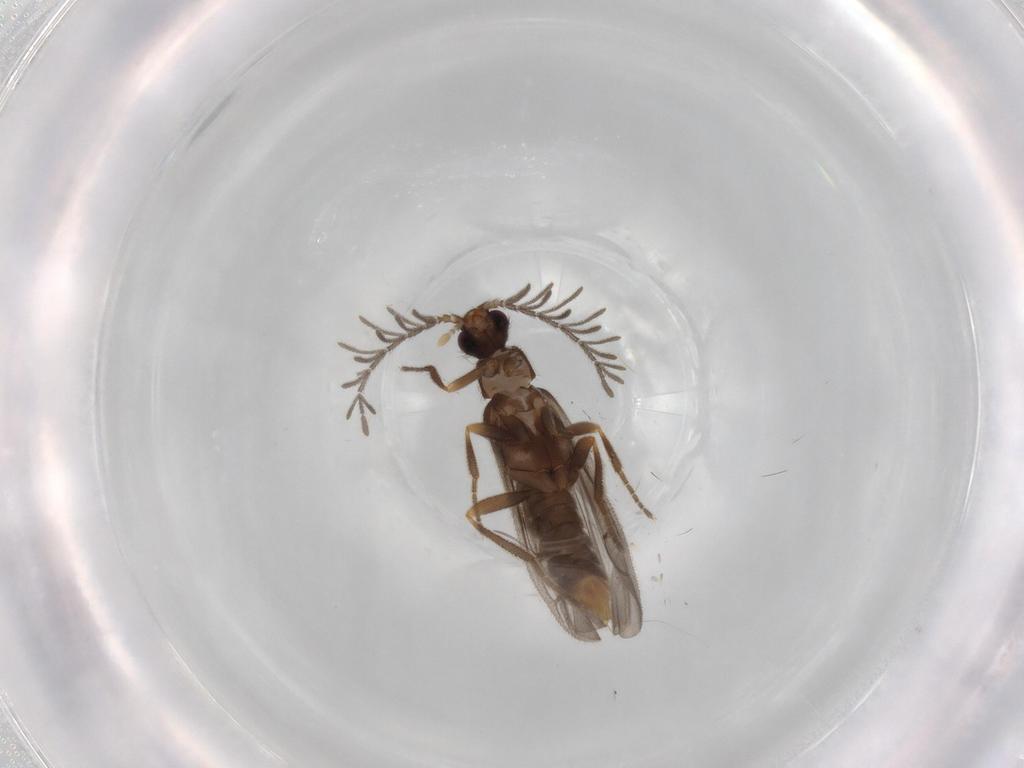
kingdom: Animalia
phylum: Arthropoda
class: Insecta
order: Coleoptera
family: Chrysomelidae
